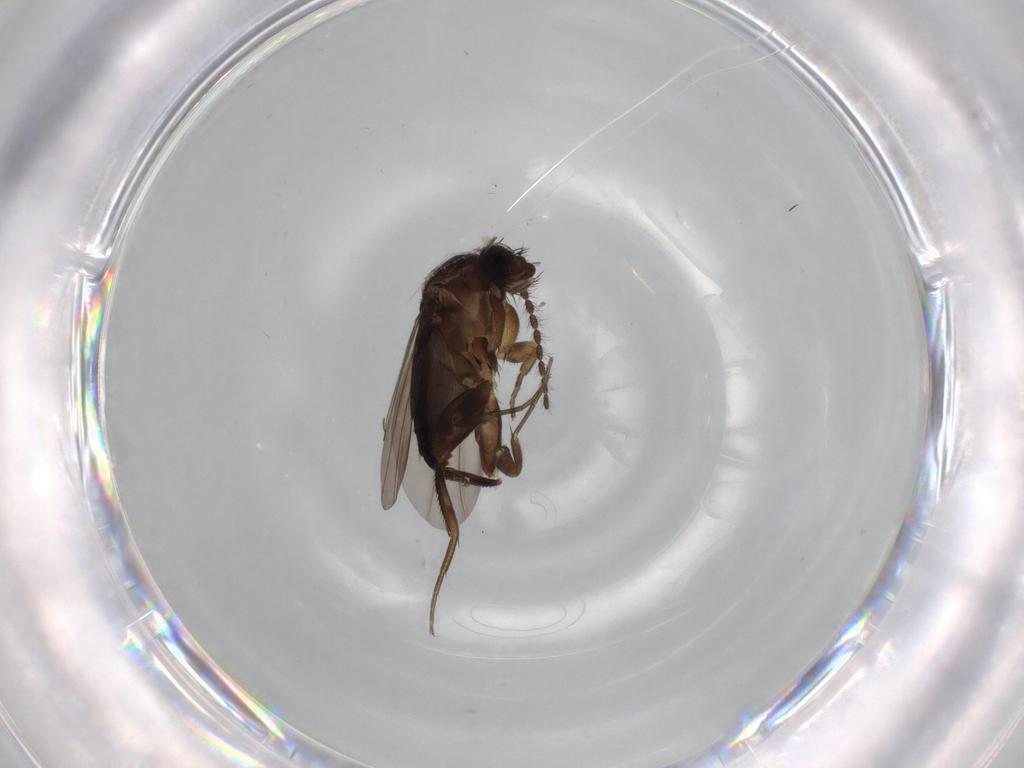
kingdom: Animalia
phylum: Arthropoda
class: Insecta
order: Diptera
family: Phoridae
